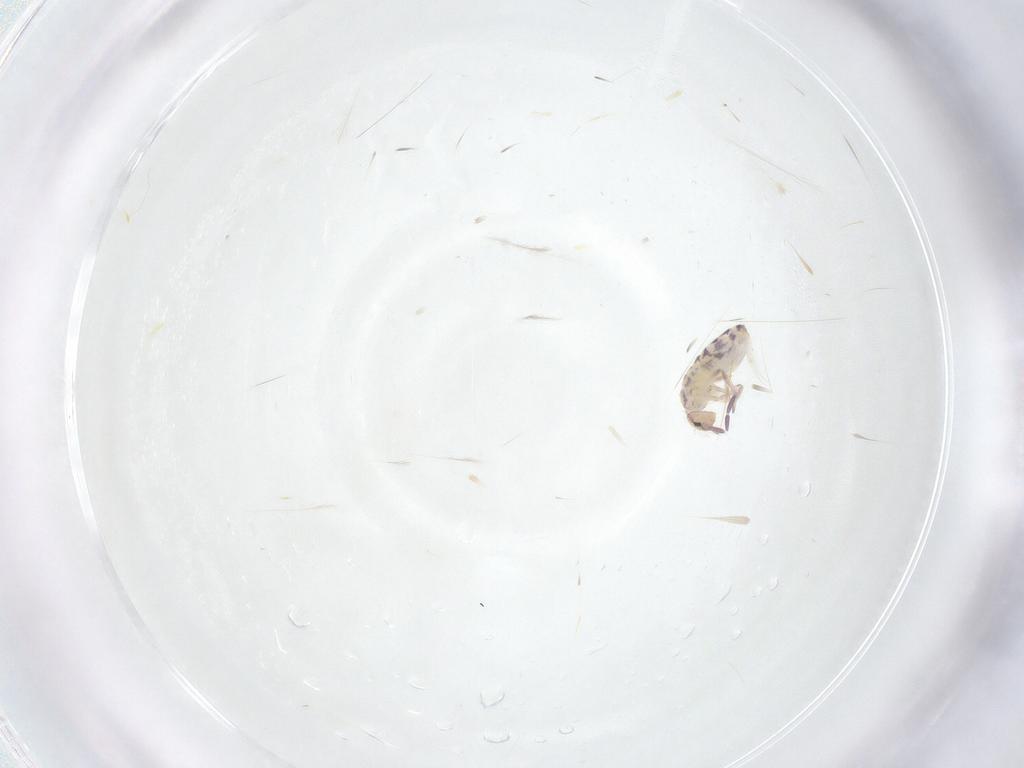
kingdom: Animalia
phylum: Arthropoda
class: Collembola
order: Entomobryomorpha
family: Entomobryidae
